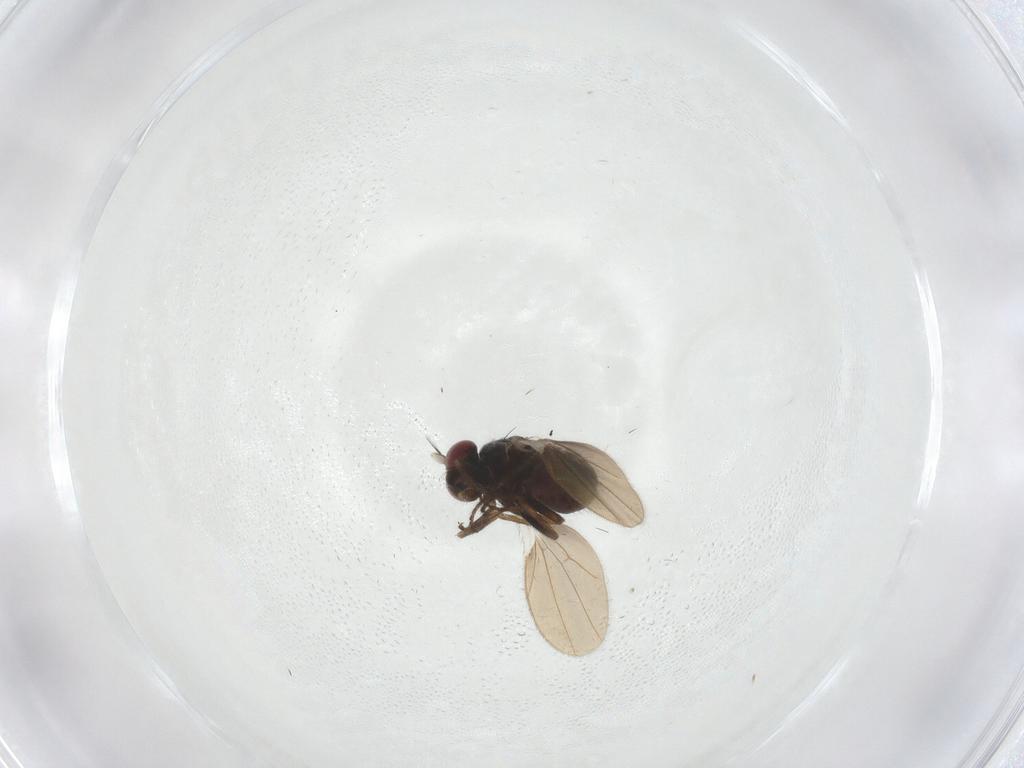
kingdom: Animalia
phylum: Arthropoda
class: Insecta
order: Diptera
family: Ephydridae
